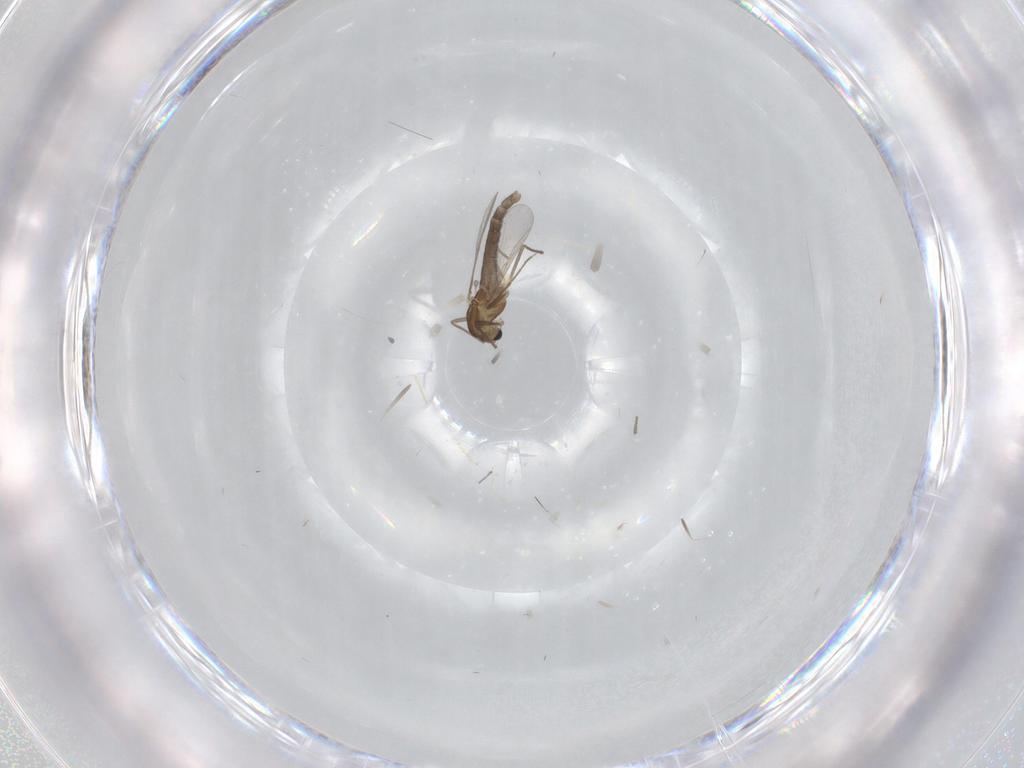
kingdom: Animalia
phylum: Arthropoda
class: Insecta
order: Diptera
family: Chironomidae
